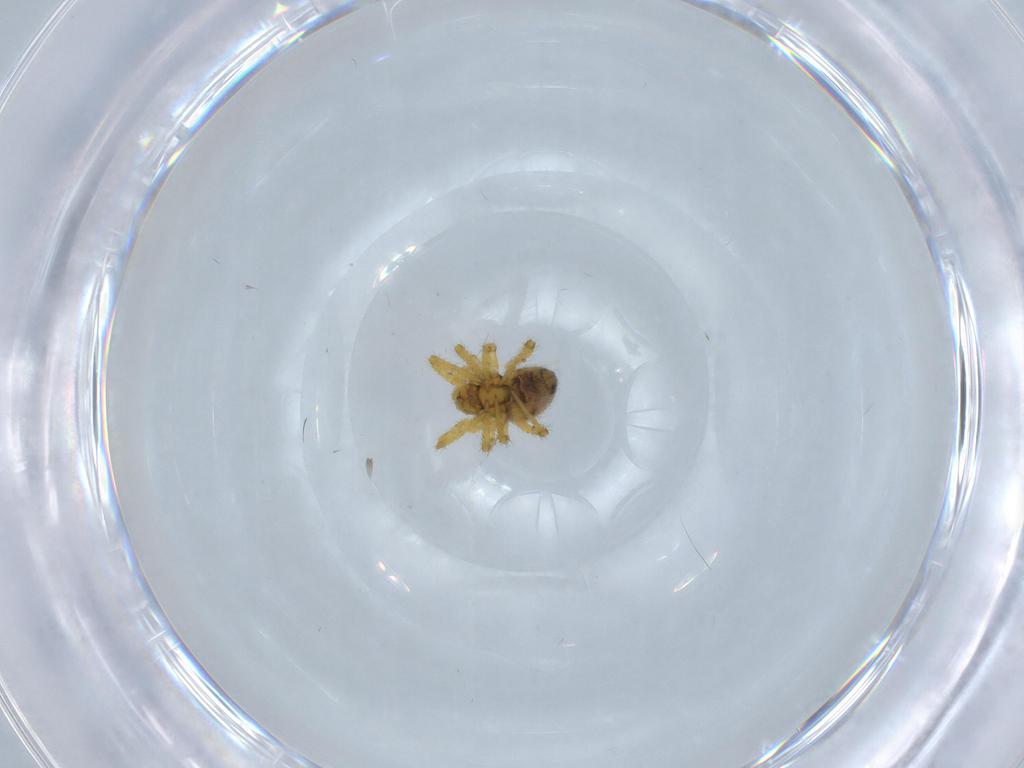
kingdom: Animalia
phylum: Arthropoda
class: Arachnida
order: Araneae
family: Theridiidae
